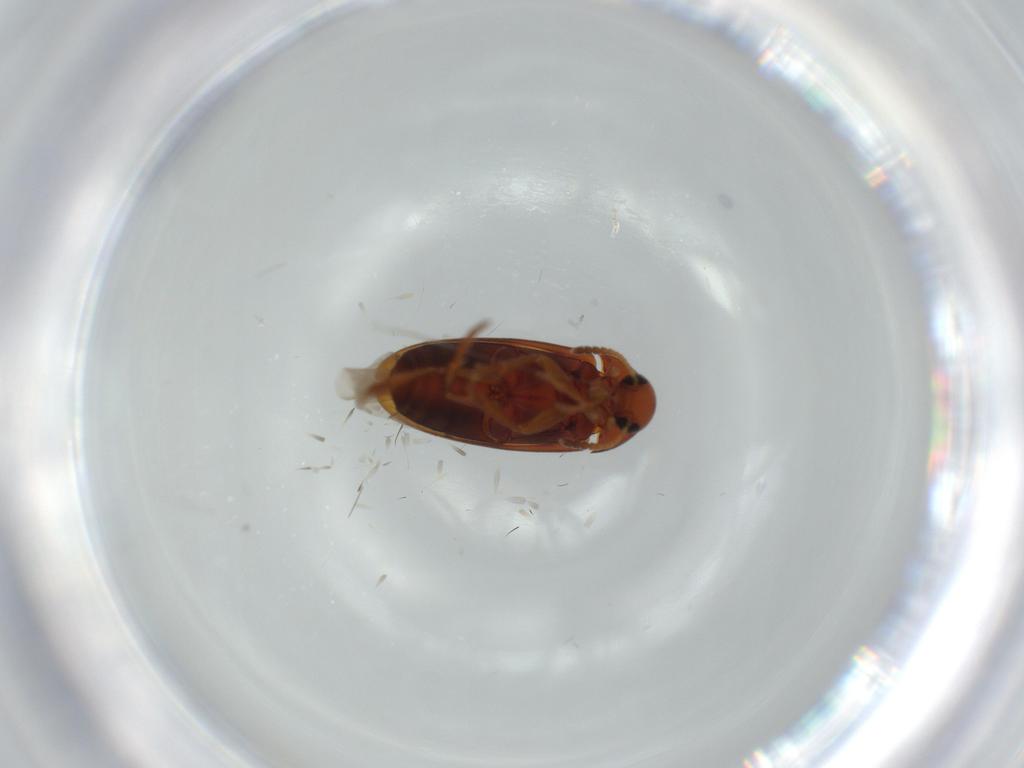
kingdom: Animalia
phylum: Arthropoda
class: Insecta
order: Coleoptera
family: Scraptiidae
